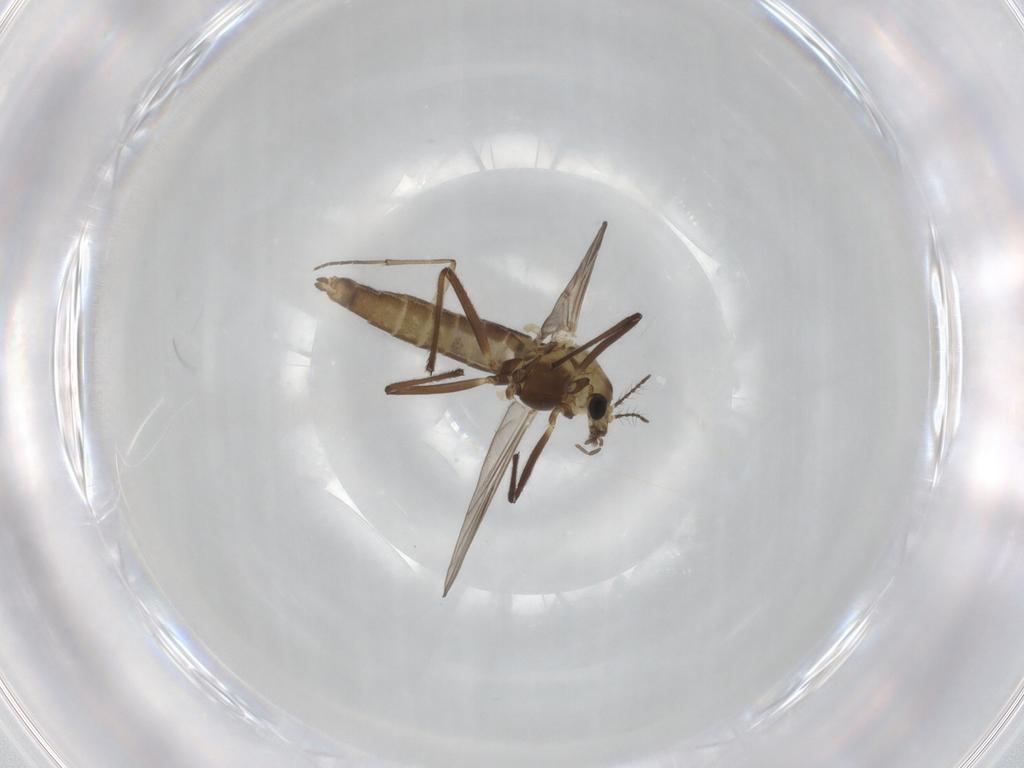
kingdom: Animalia
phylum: Arthropoda
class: Insecta
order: Diptera
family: Chironomidae
